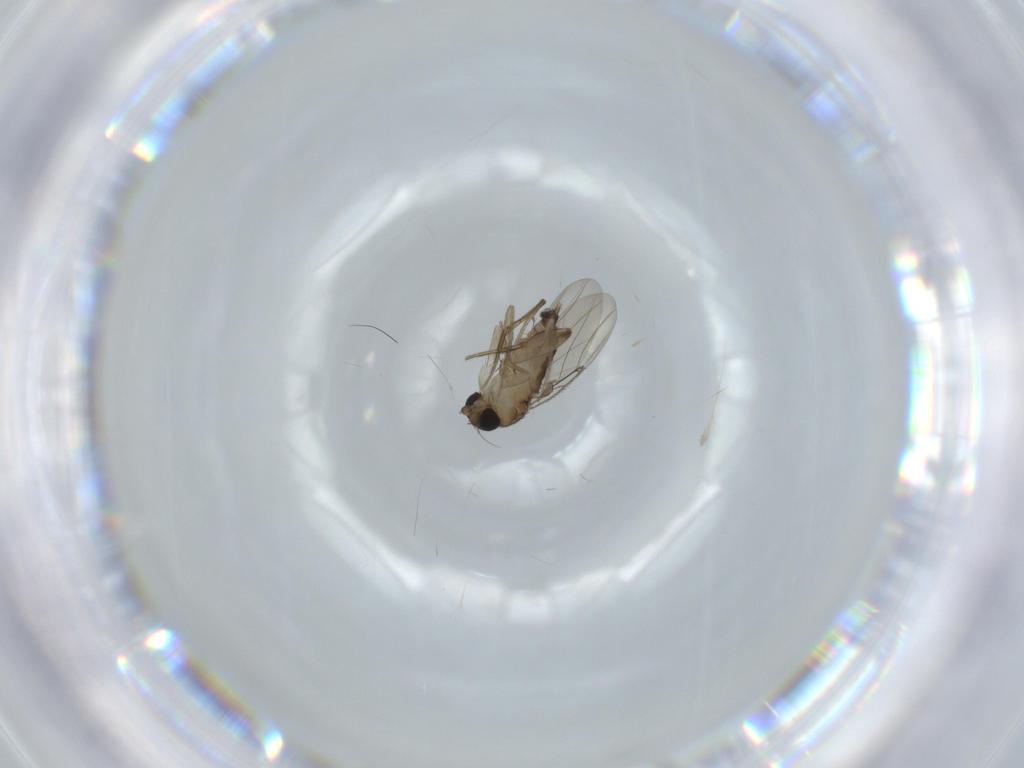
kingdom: Animalia
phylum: Arthropoda
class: Insecta
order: Diptera
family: Phoridae
